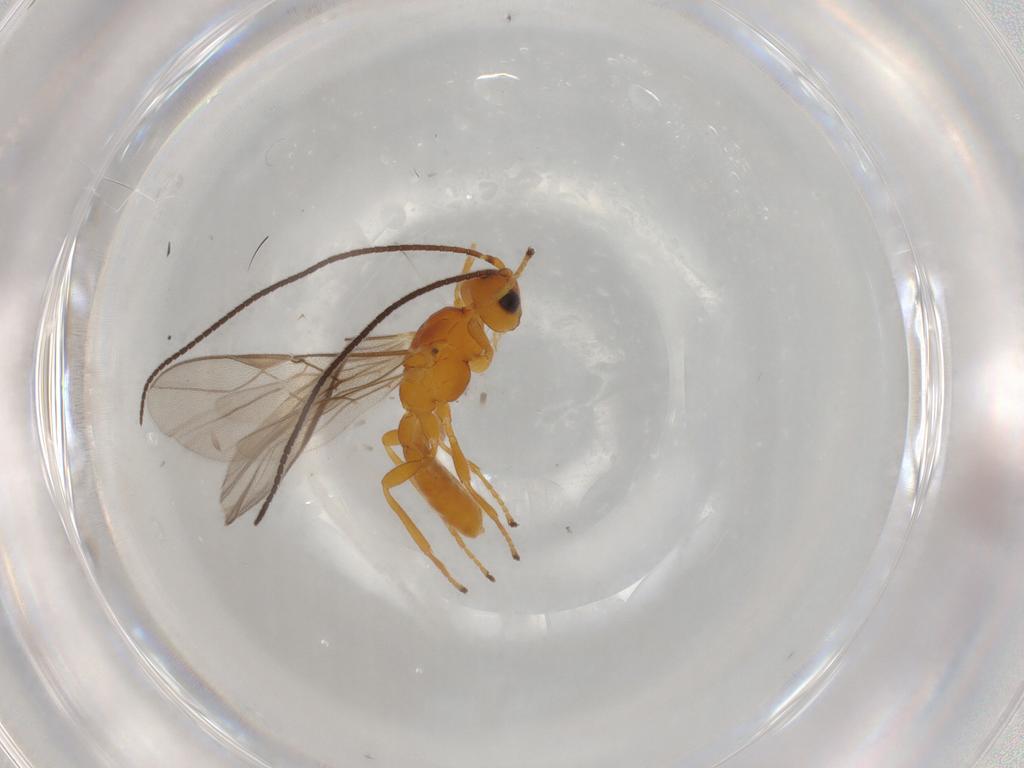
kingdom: Animalia
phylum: Arthropoda
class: Insecta
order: Hymenoptera
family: Braconidae
